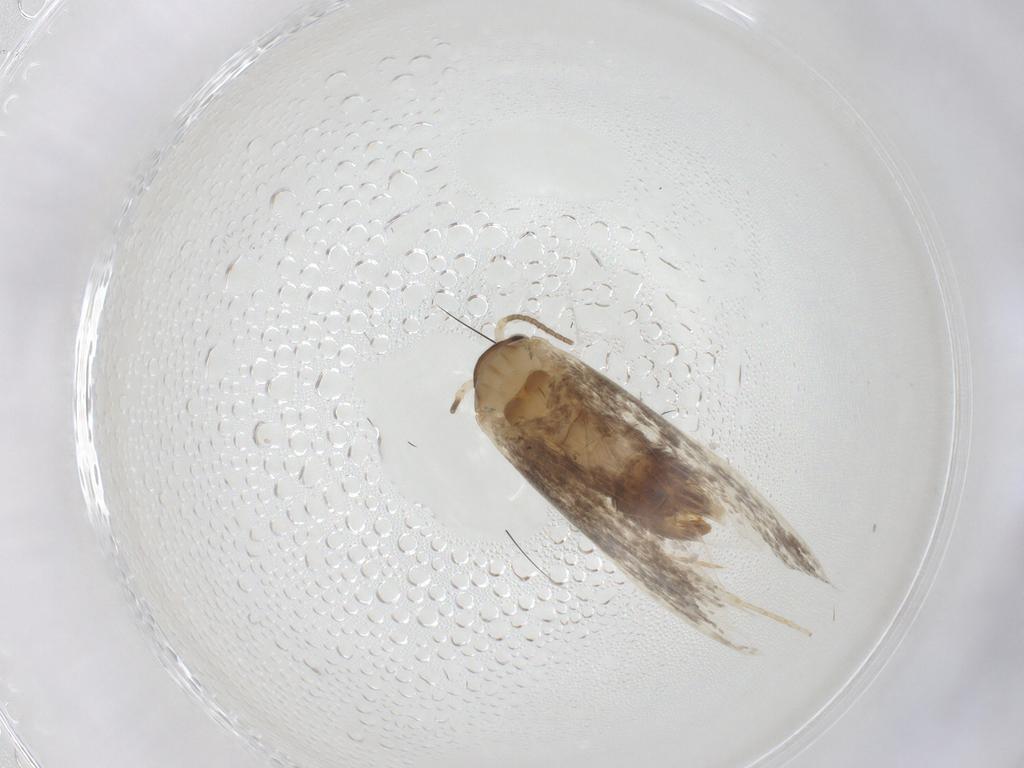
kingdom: Animalia
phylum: Arthropoda
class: Insecta
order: Lepidoptera
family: Dryadaulidae
